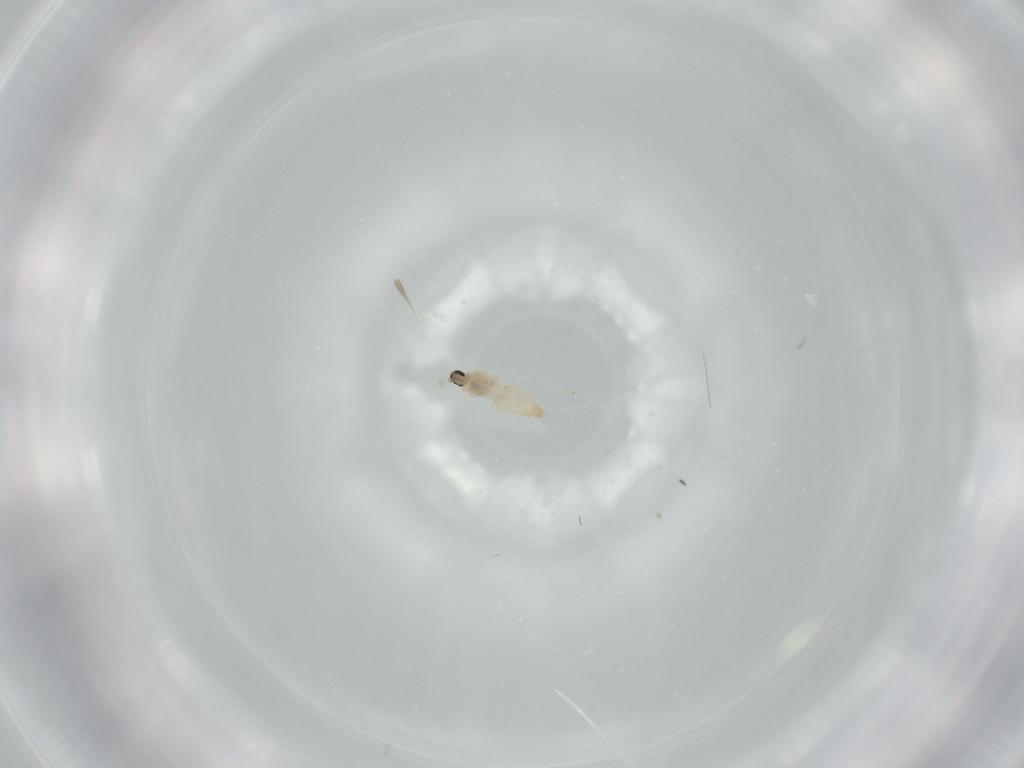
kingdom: Animalia
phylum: Arthropoda
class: Insecta
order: Diptera
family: Cecidomyiidae
